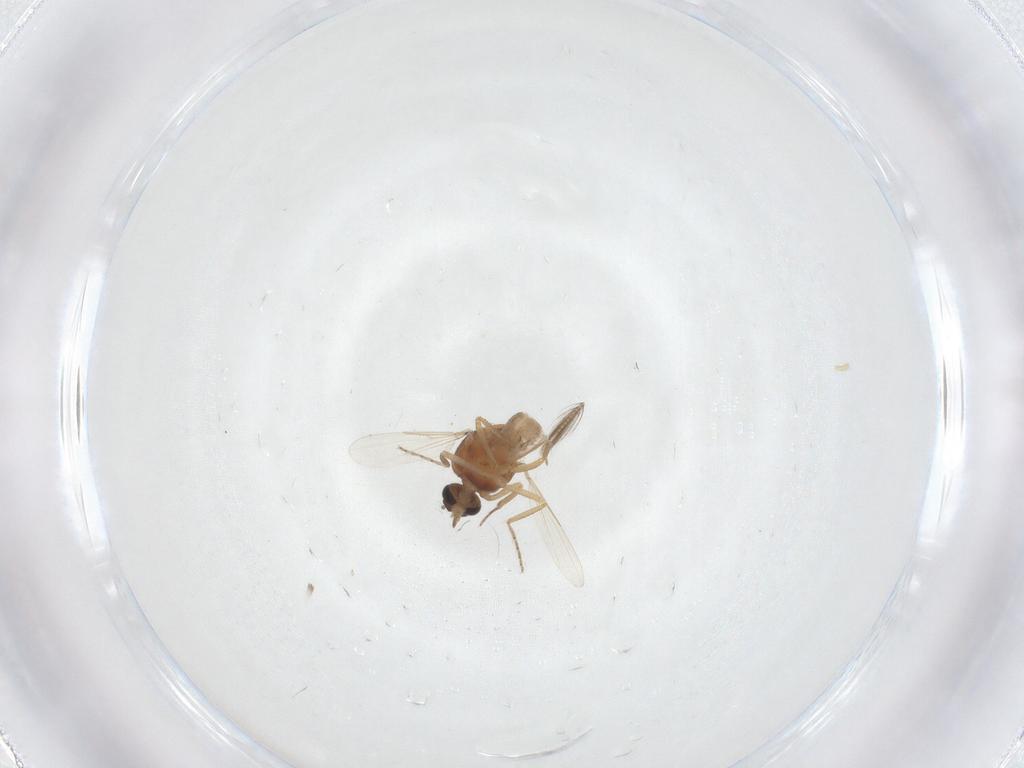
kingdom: Animalia
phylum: Arthropoda
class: Insecta
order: Diptera
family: Ceratopogonidae
